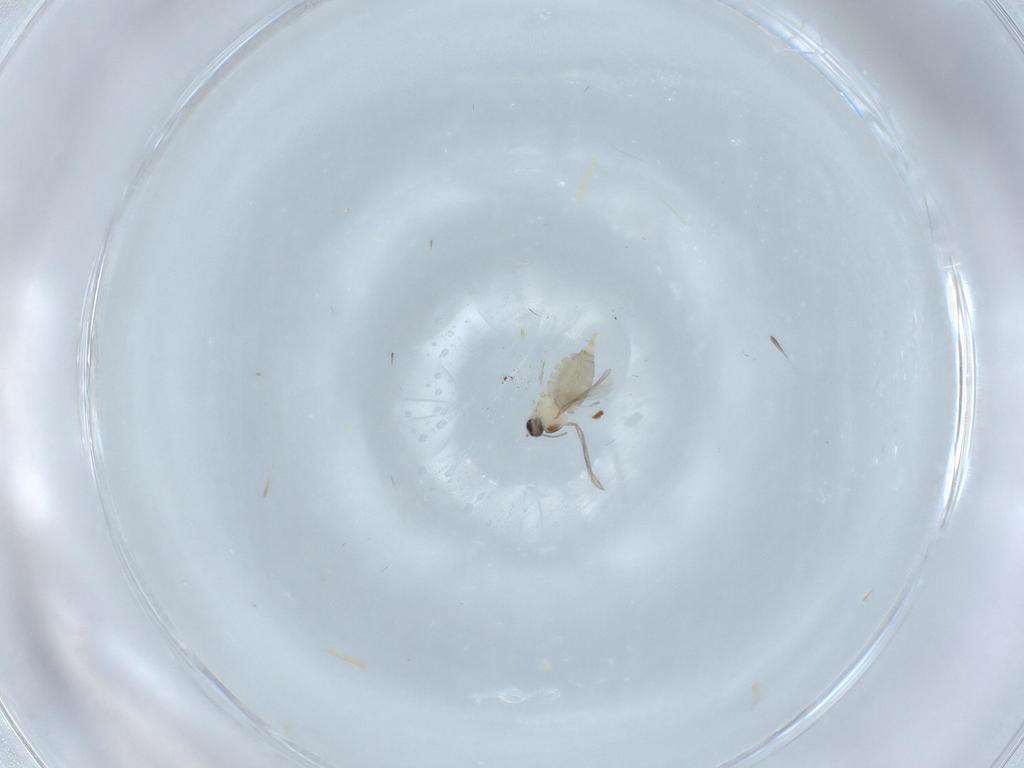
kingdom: Animalia
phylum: Arthropoda
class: Insecta
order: Diptera
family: Cecidomyiidae
